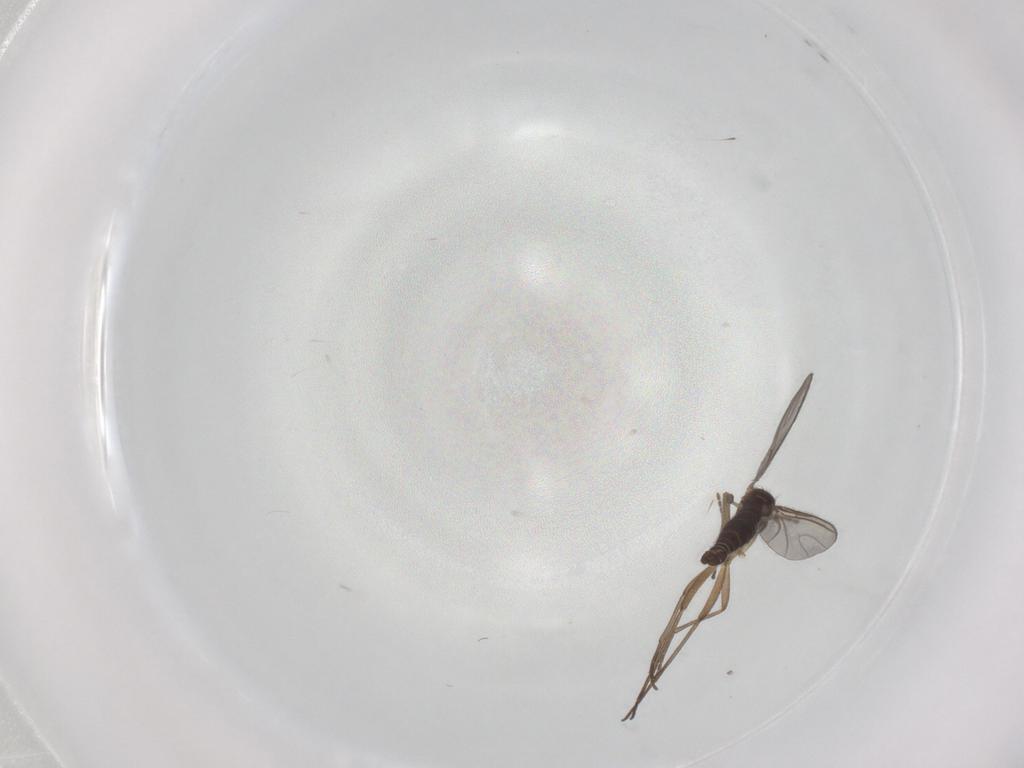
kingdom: Animalia
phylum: Arthropoda
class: Insecta
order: Diptera
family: Cecidomyiidae
